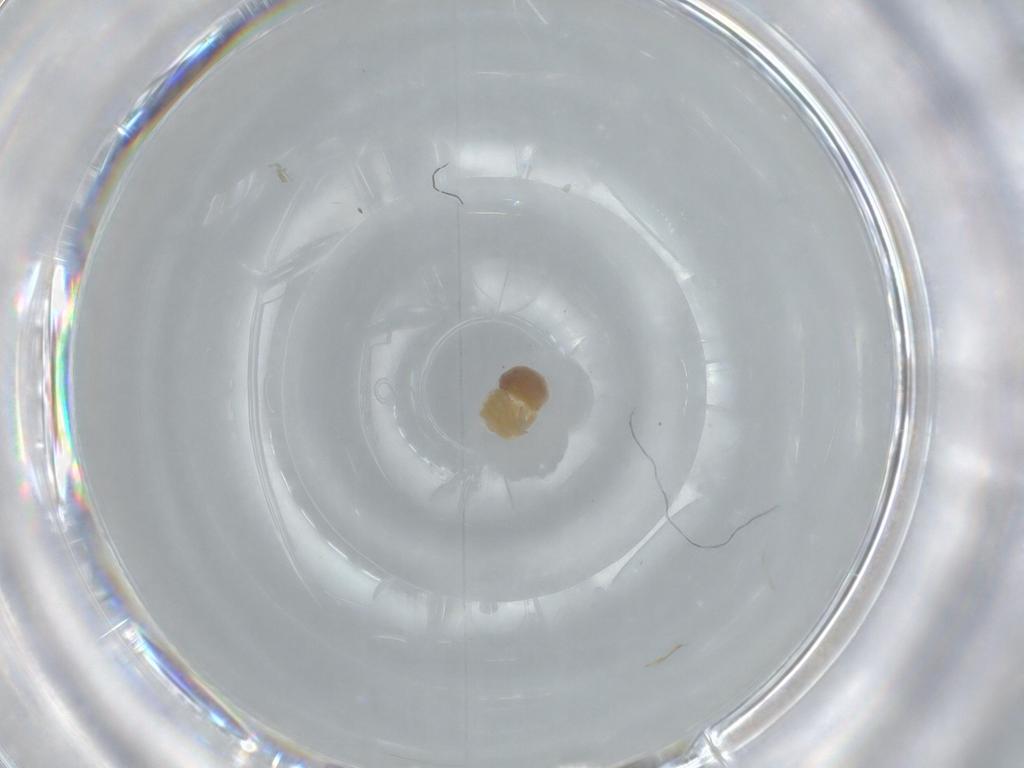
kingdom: Animalia
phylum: Arthropoda
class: Arachnida
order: Araneae
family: Pholcidae
